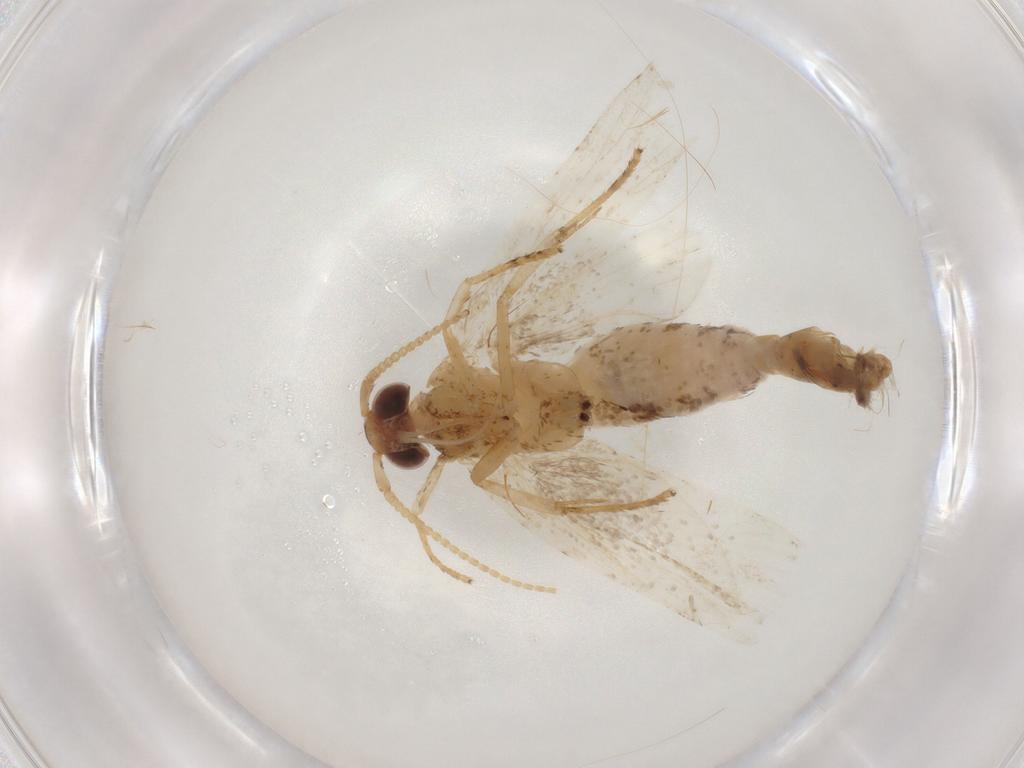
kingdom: Animalia
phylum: Arthropoda
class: Insecta
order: Lepidoptera
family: Lecithoceridae
